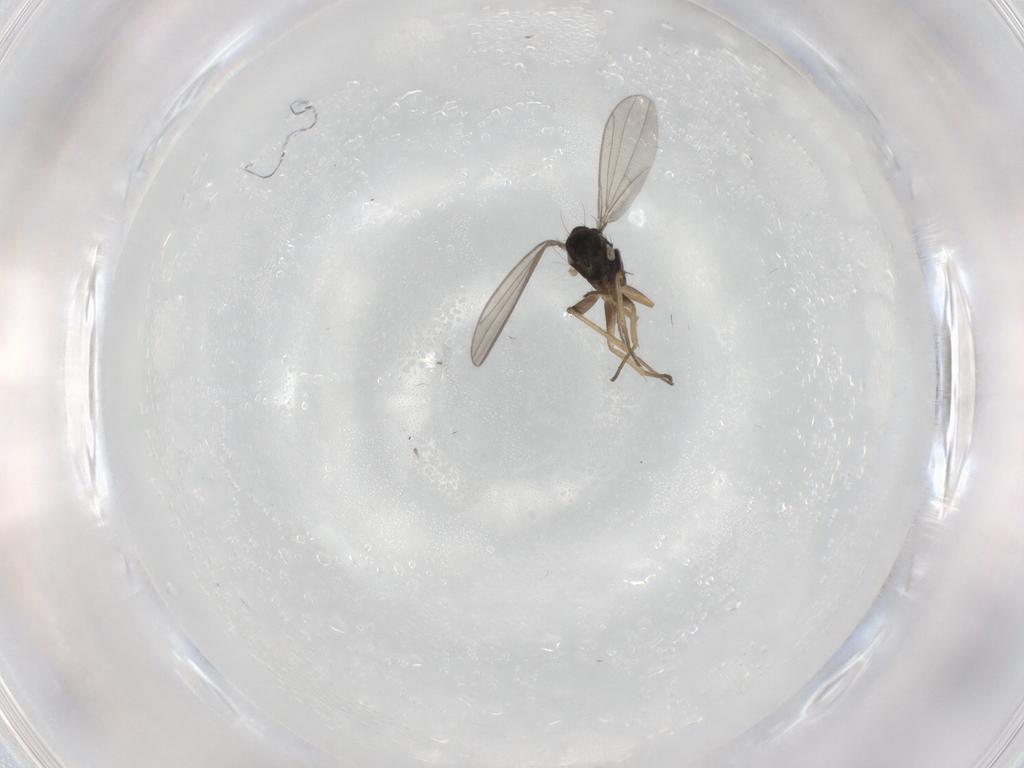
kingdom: Animalia
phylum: Arthropoda
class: Insecta
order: Diptera
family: Dolichopodidae
